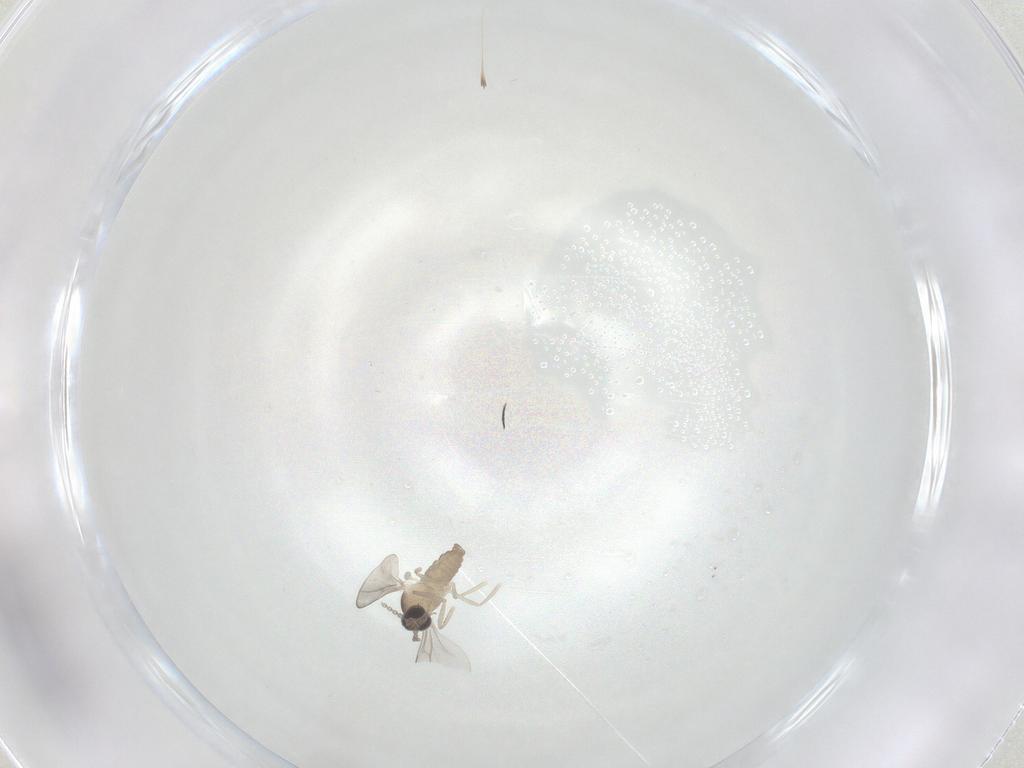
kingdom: Animalia
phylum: Arthropoda
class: Insecta
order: Diptera
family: Cecidomyiidae
